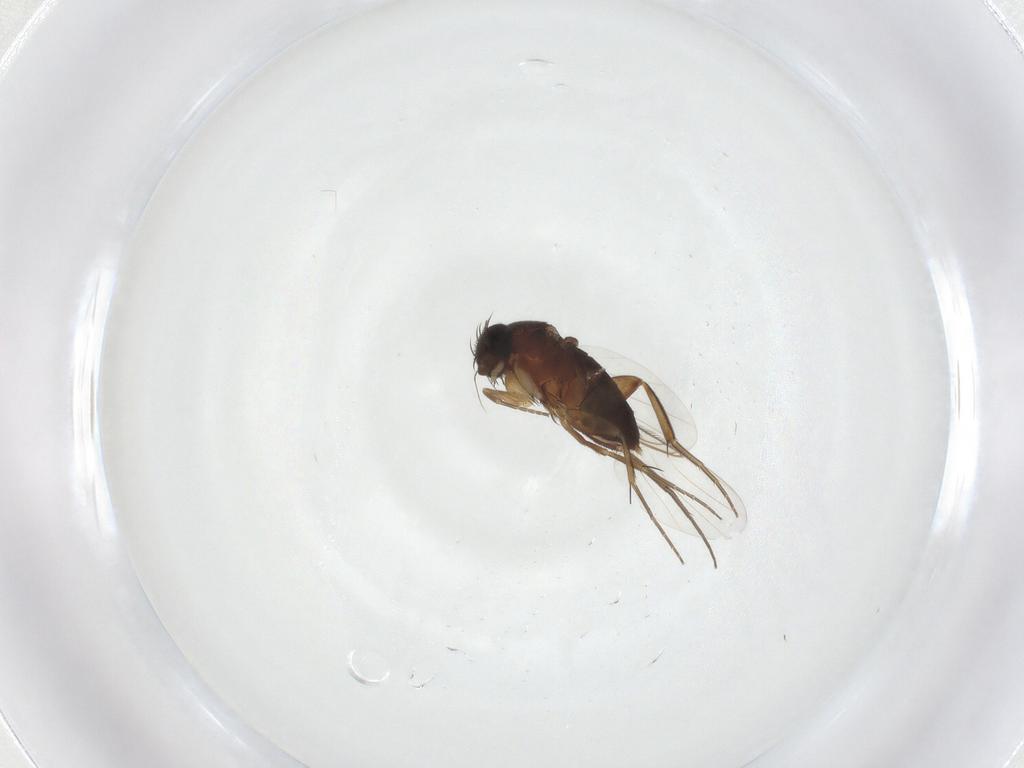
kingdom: Animalia
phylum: Arthropoda
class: Insecta
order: Diptera
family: Phoridae
